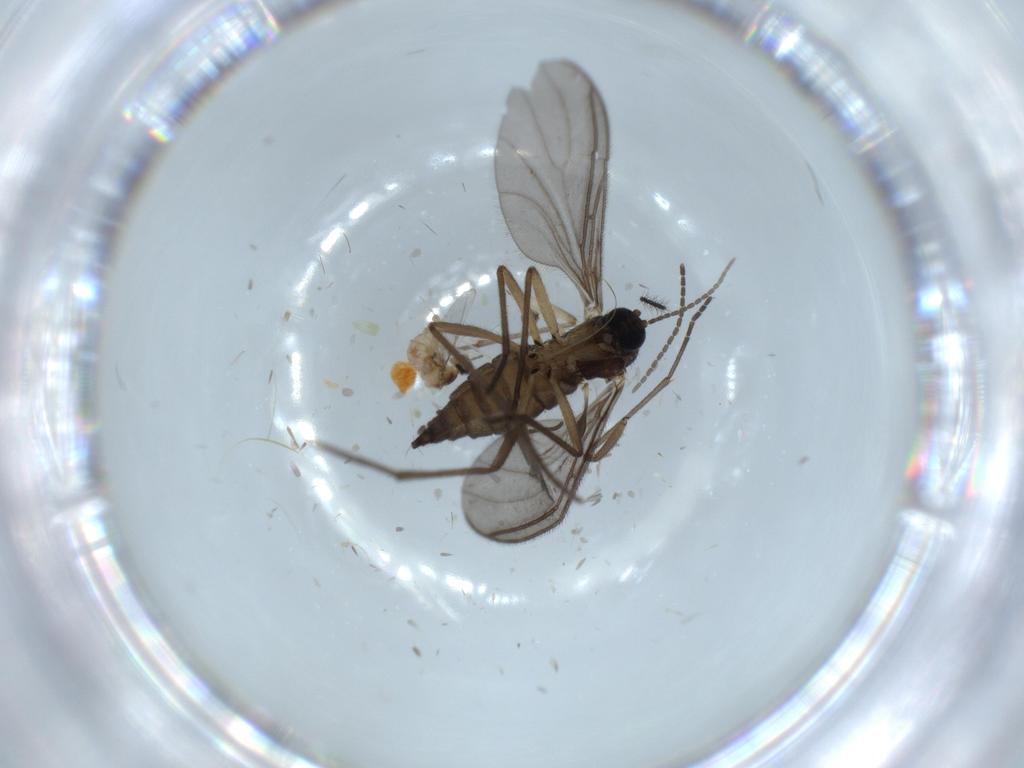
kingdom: Animalia
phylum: Arthropoda
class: Insecta
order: Diptera
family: Cecidomyiidae
